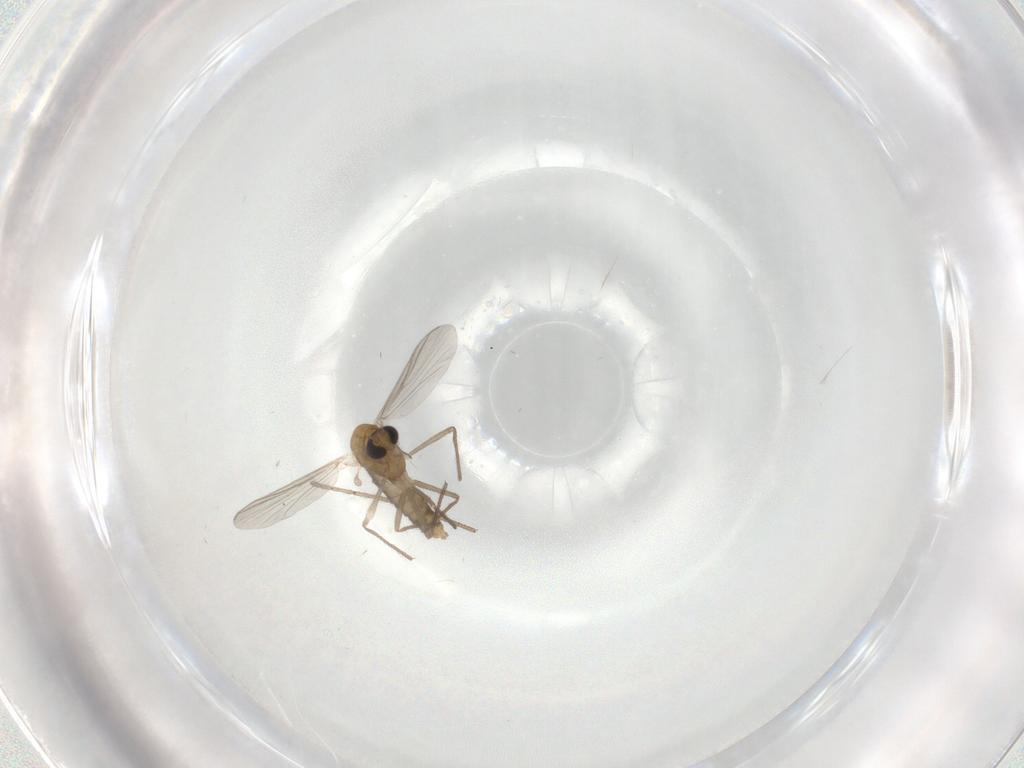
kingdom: Animalia
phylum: Arthropoda
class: Insecta
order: Diptera
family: Chironomidae
